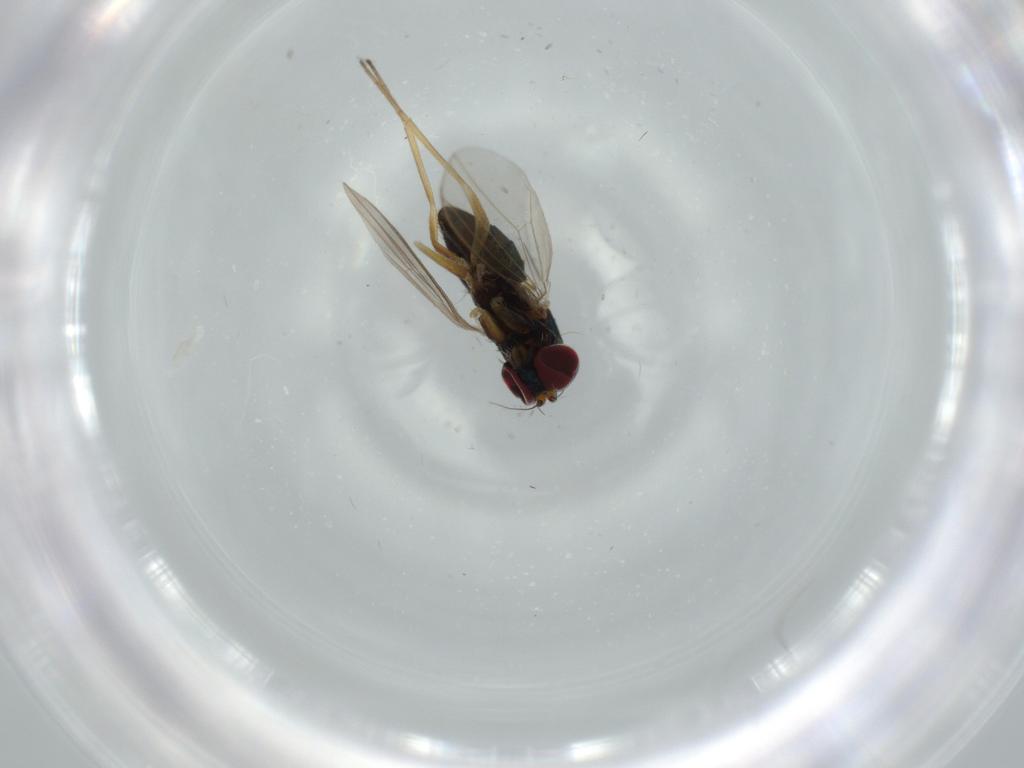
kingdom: Animalia
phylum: Arthropoda
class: Insecta
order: Diptera
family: Dolichopodidae
